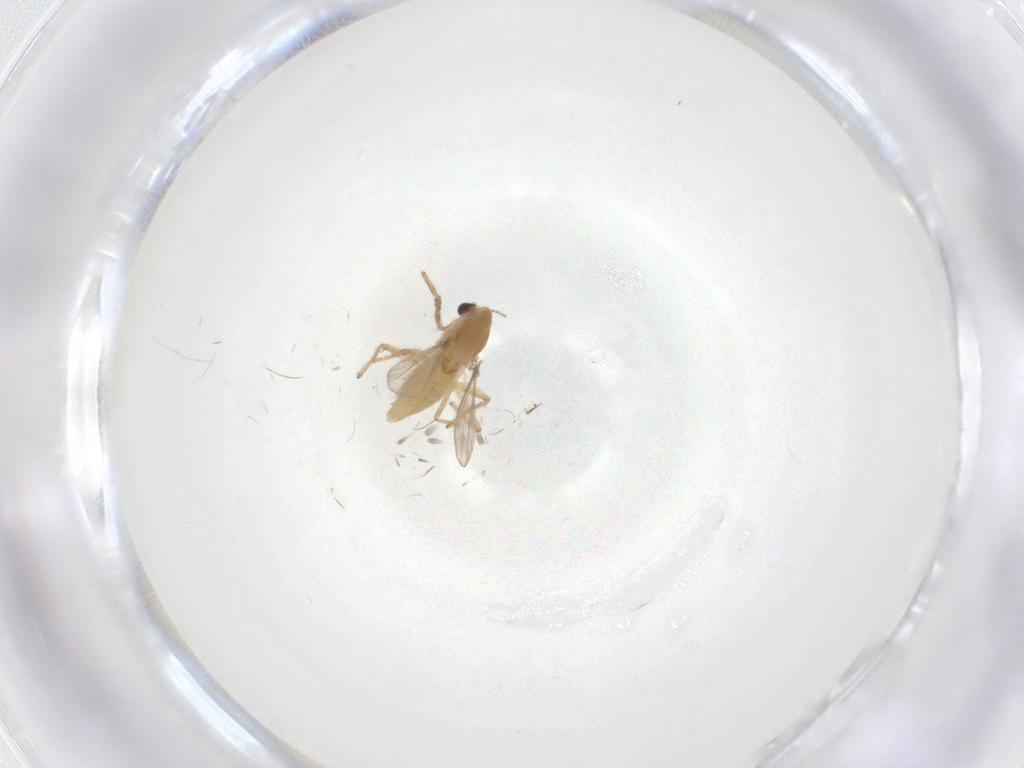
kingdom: Animalia
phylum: Arthropoda
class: Insecta
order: Diptera
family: Chironomidae
